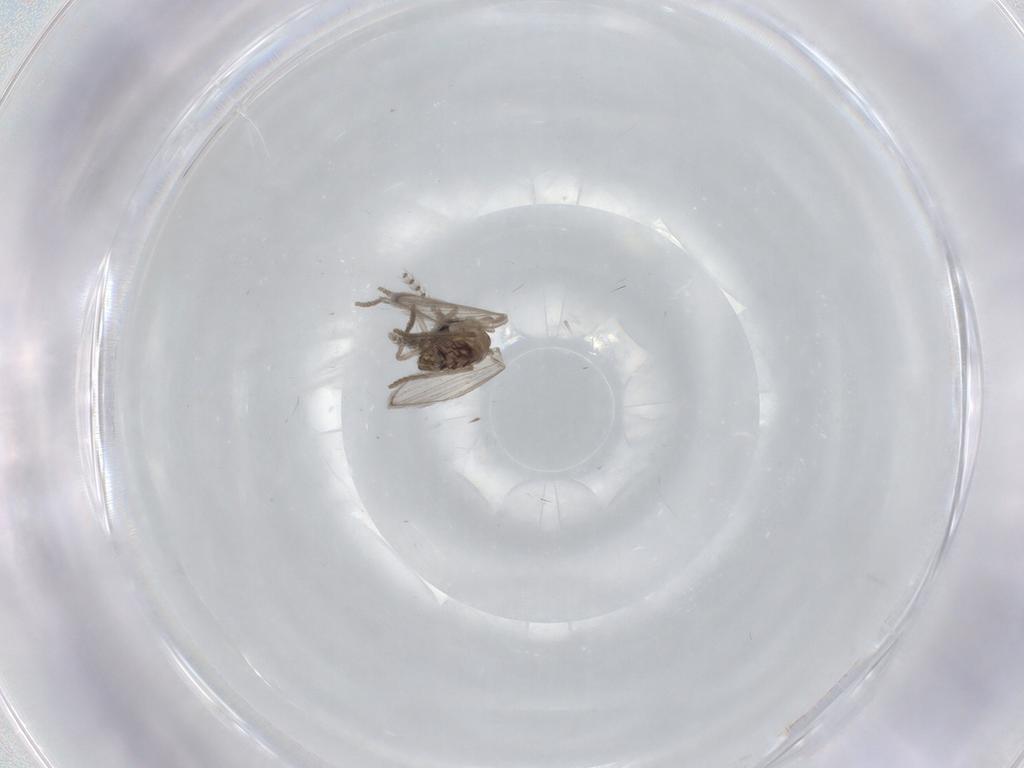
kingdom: Animalia
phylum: Arthropoda
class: Insecta
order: Diptera
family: Psychodidae
